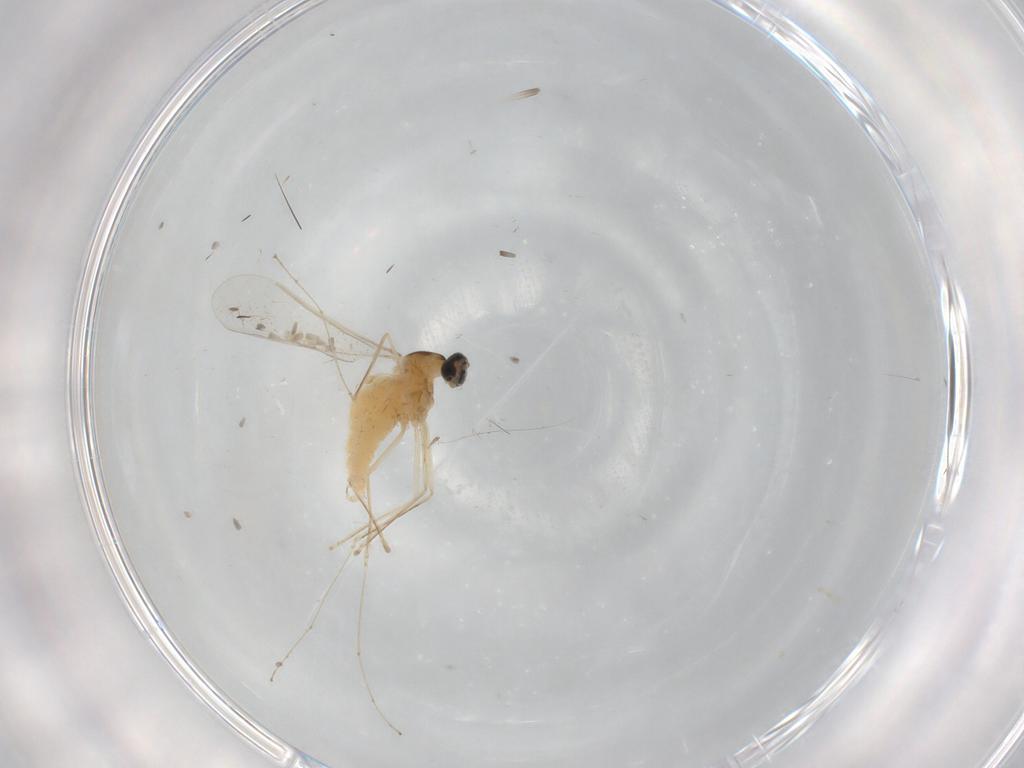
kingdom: Animalia
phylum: Arthropoda
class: Insecta
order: Diptera
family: Cecidomyiidae
